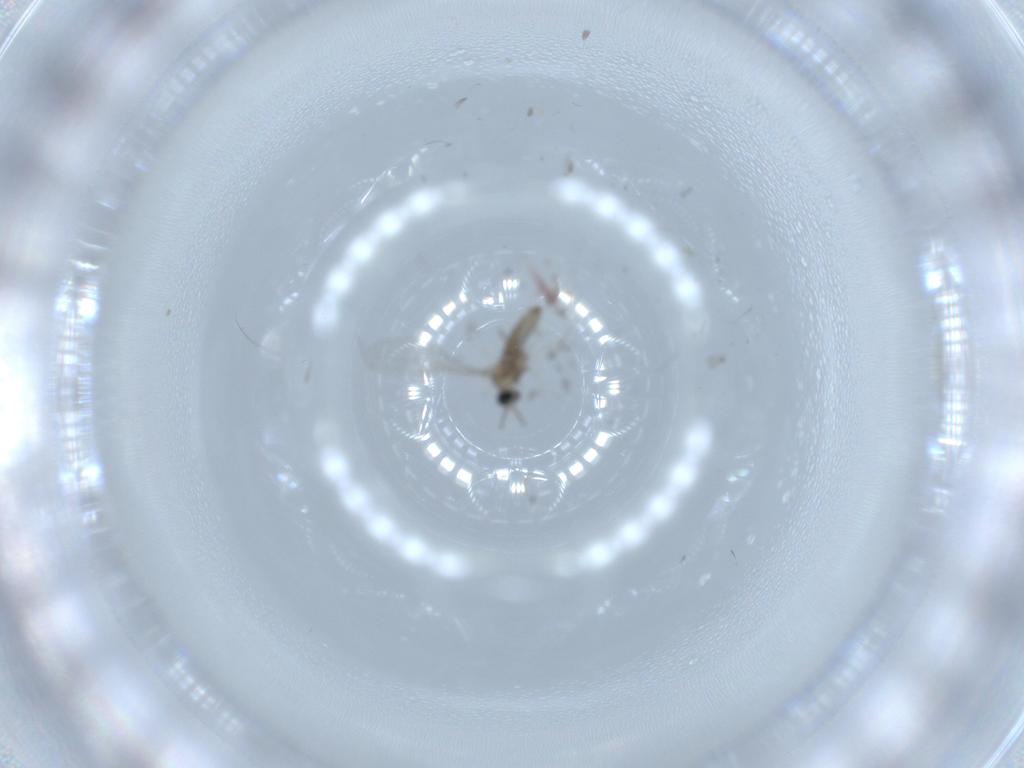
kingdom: Animalia
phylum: Arthropoda
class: Insecta
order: Diptera
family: Cecidomyiidae
